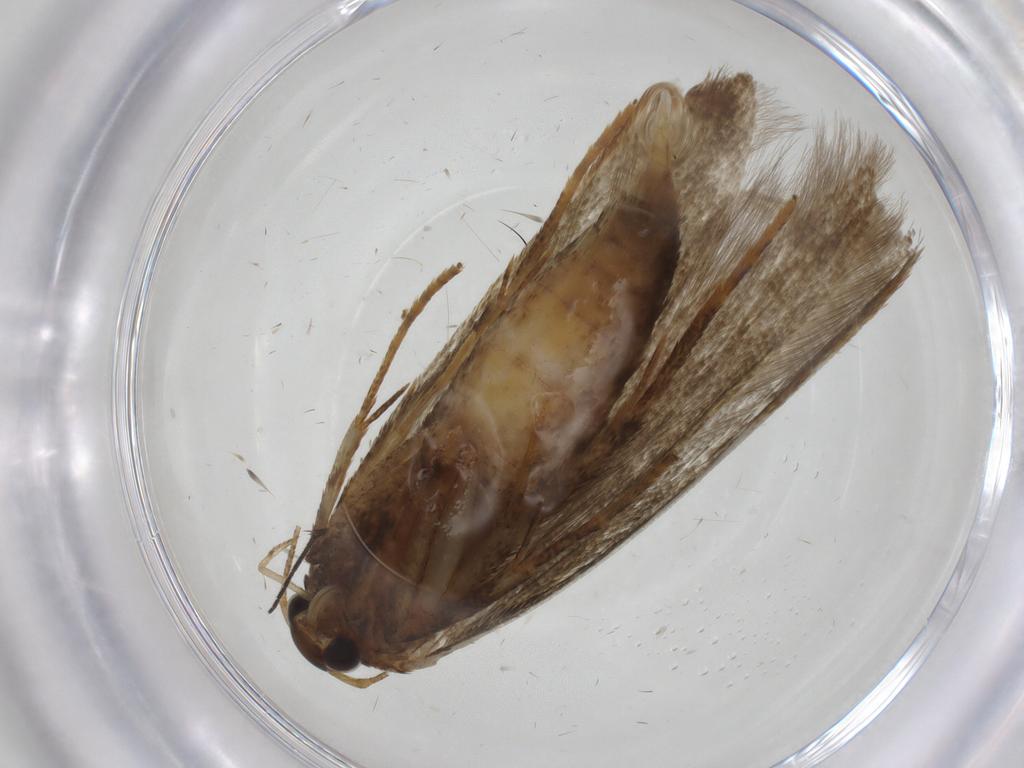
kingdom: Animalia
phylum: Arthropoda
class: Insecta
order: Lepidoptera
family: Blastobasidae
